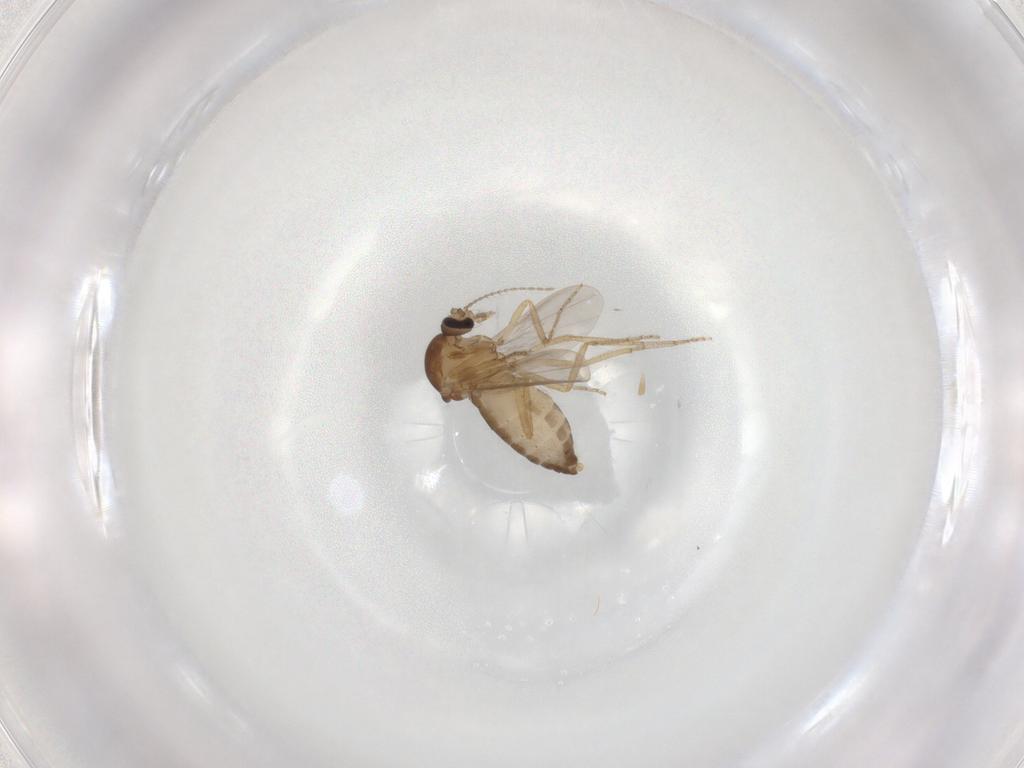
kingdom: Animalia
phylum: Arthropoda
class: Insecta
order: Diptera
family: Ceratopogonidae
